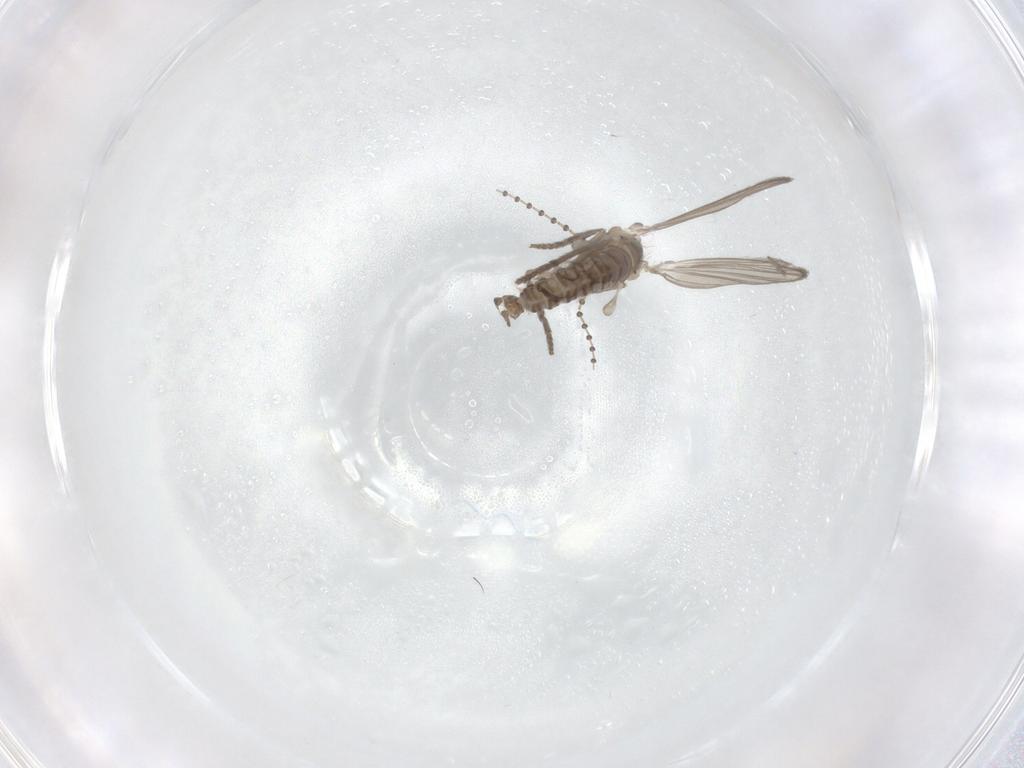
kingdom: Animalia
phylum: Arthropoda
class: Insecta
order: Diptera
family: Psychodidae
